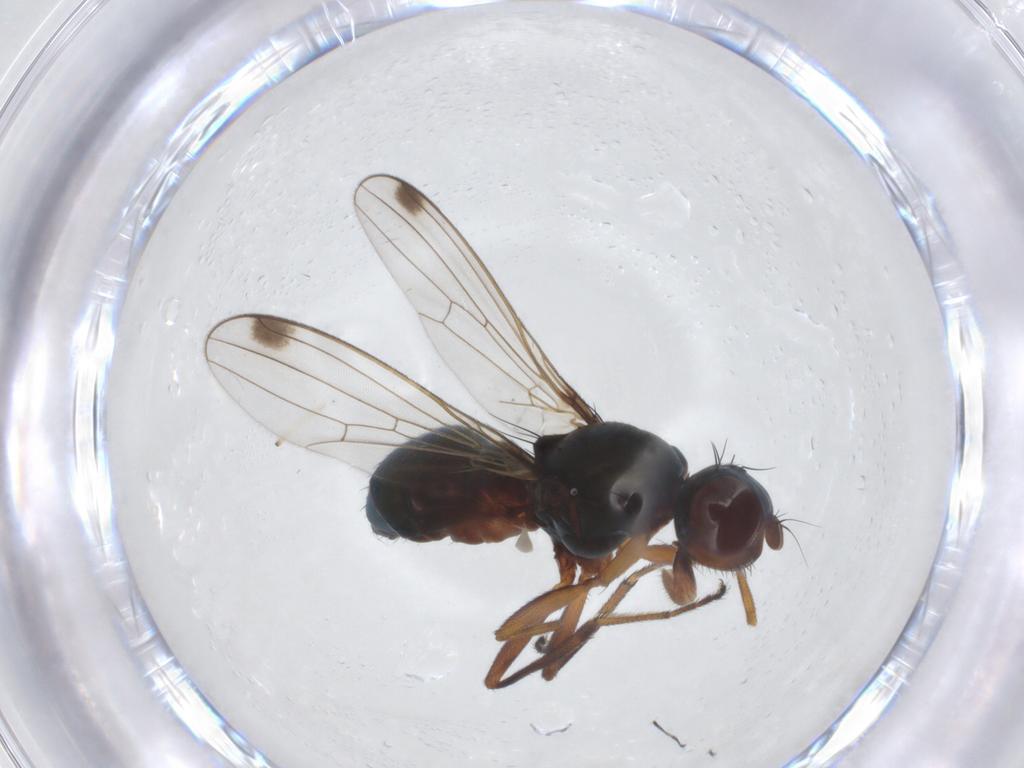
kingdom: Animalia
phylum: Arthropoda
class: Insecta
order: Diptera
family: Sepsidae
